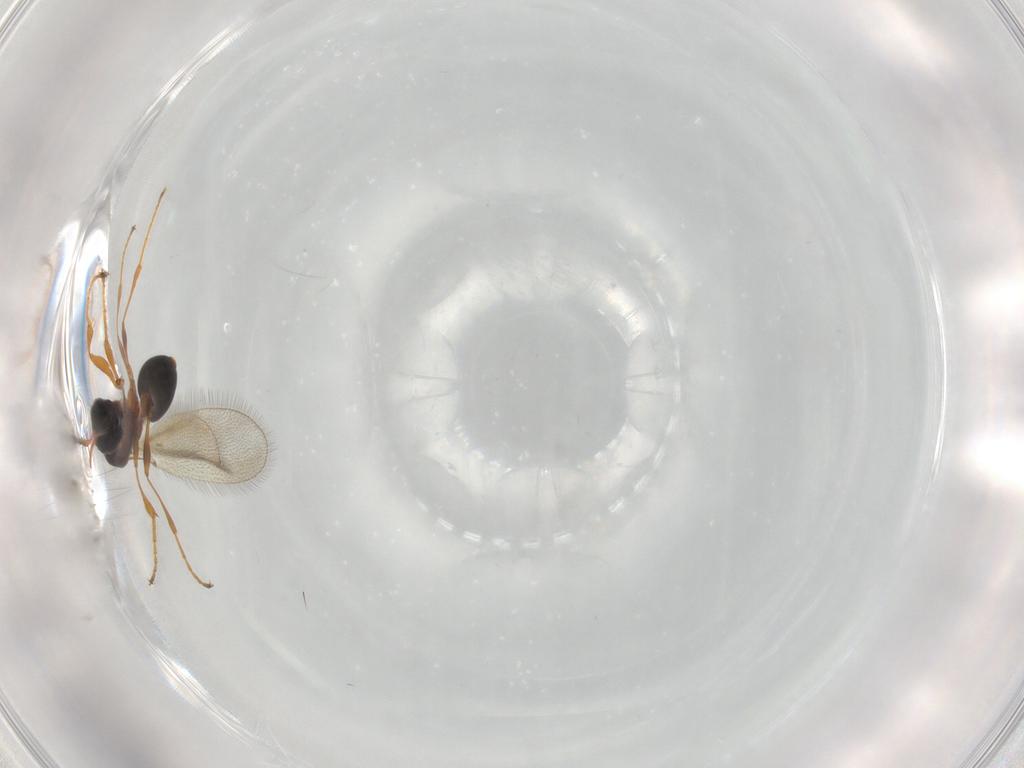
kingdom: Animalia
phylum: Arthropoda
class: Insecta
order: Hymenoptera
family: Diapriidae
